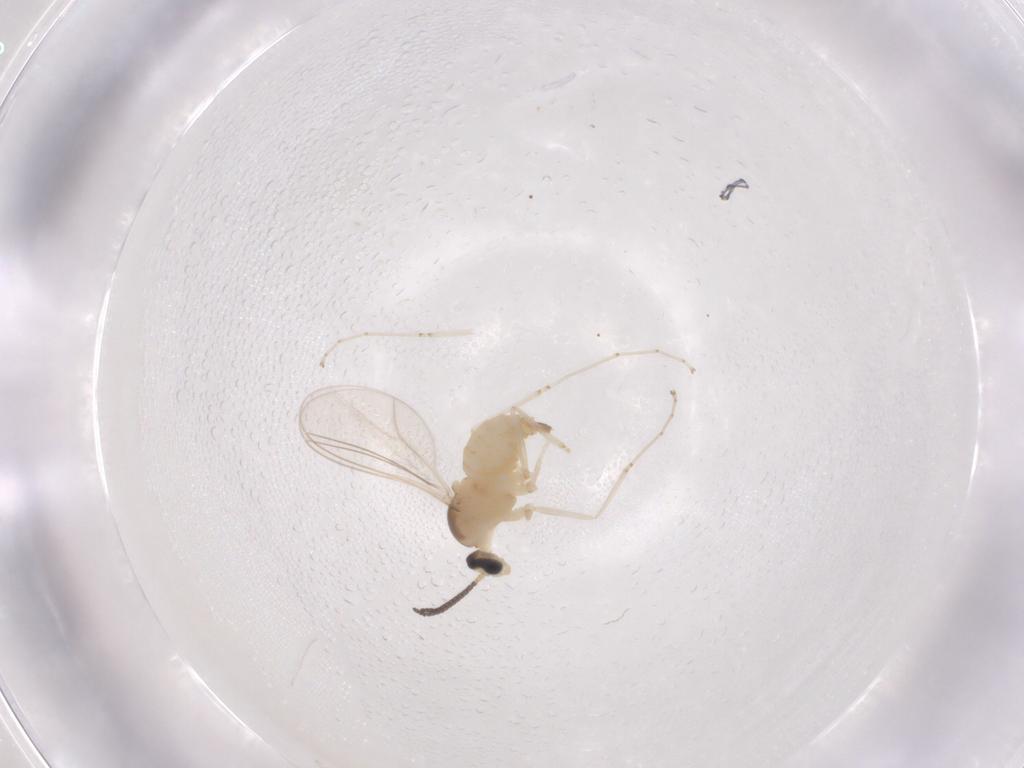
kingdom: Animalia
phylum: Arthropoda
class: Insecta
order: Diptera
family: Cecidomyiidae
